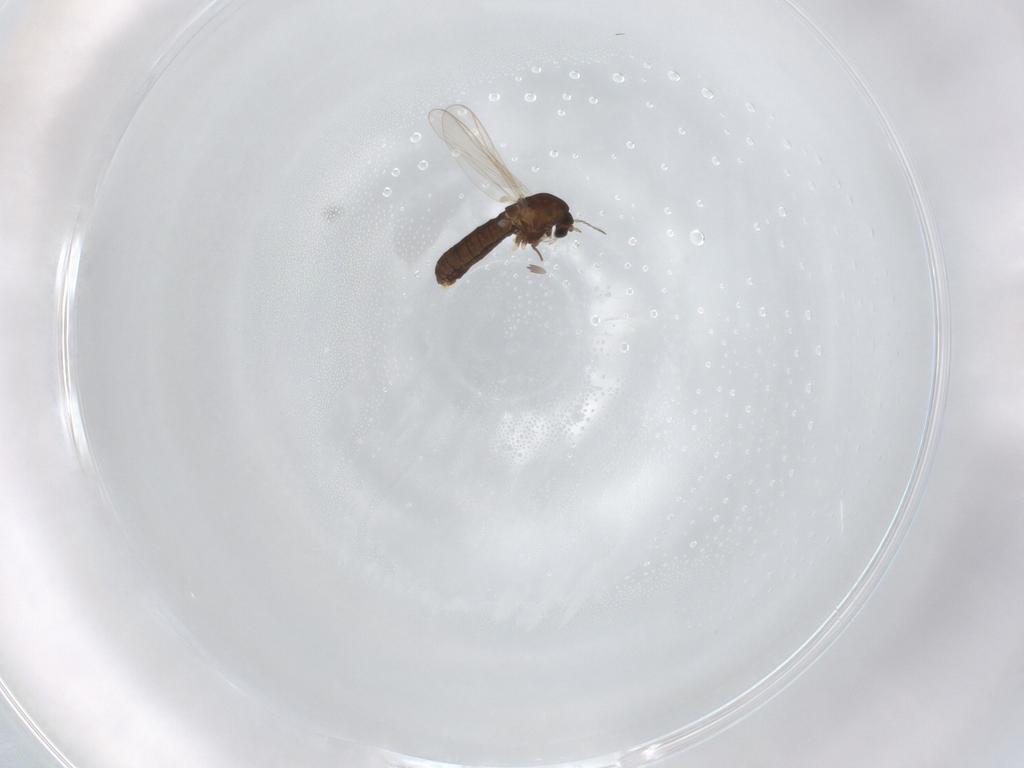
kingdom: Animalia
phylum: Arthropoda
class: Insecta
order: Diptera
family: Chironomidae
